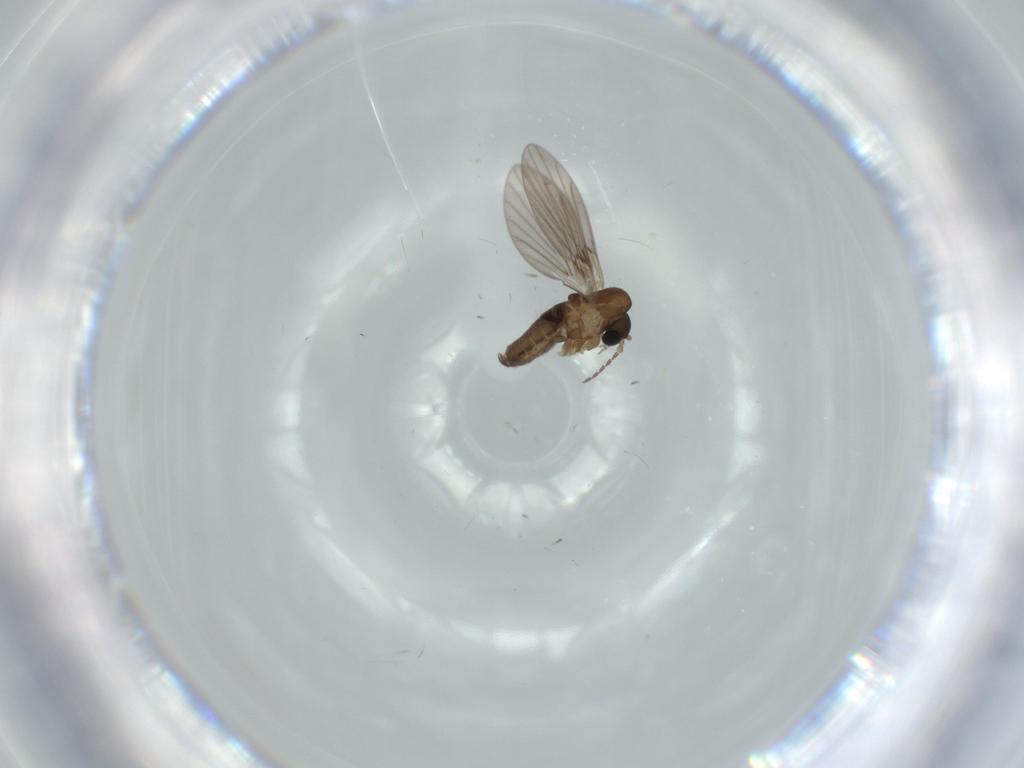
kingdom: Animalia
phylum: Arthropoda
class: Insecta
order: Diptera
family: Psychodidae
